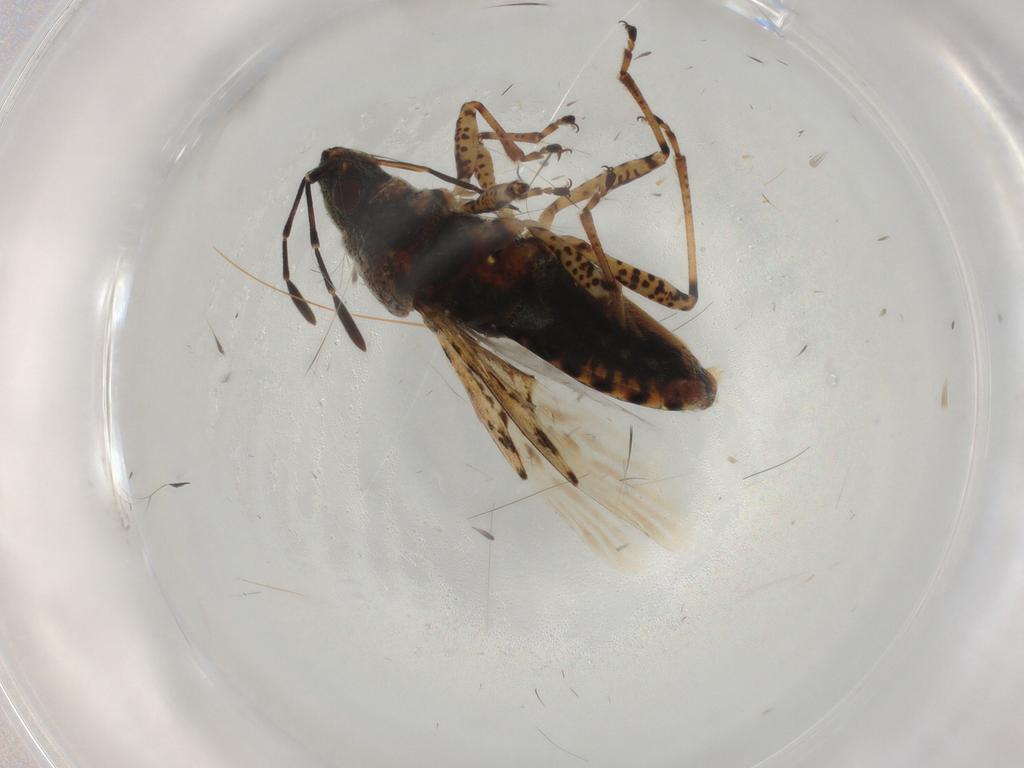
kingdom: Animalia
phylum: Arthropoda
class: Insecta
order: Hemiptera
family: Lygaeidae
